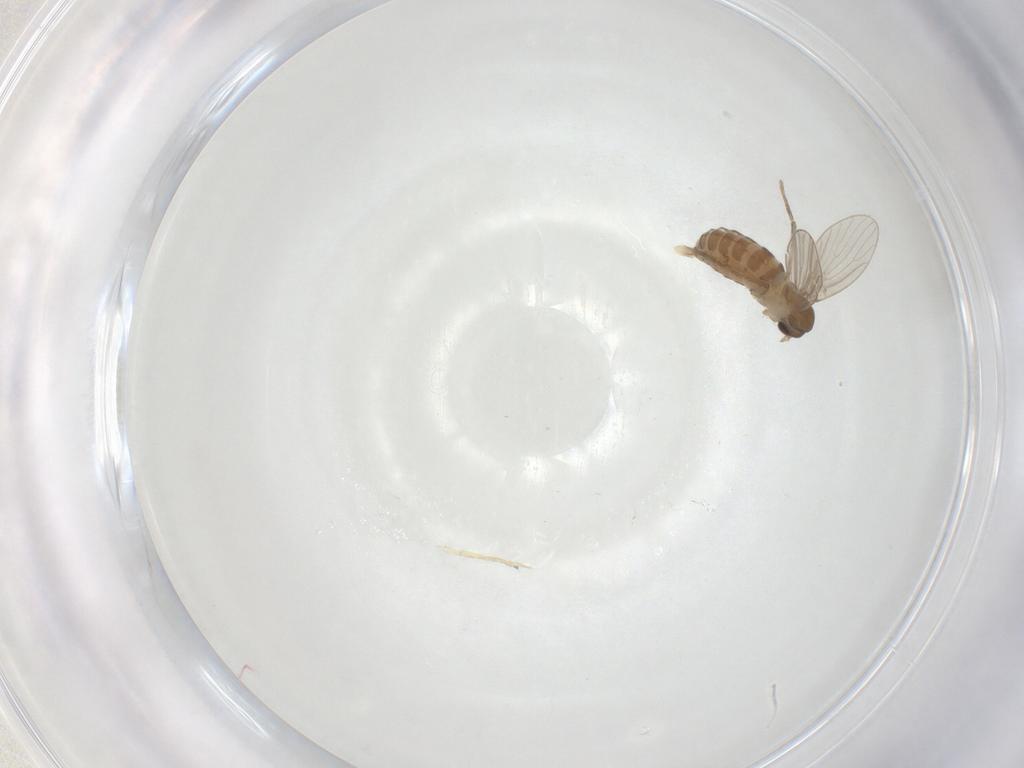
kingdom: Animalia
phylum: Arthropoda
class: Insecta
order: Diptera
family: Cecidomyiidae
